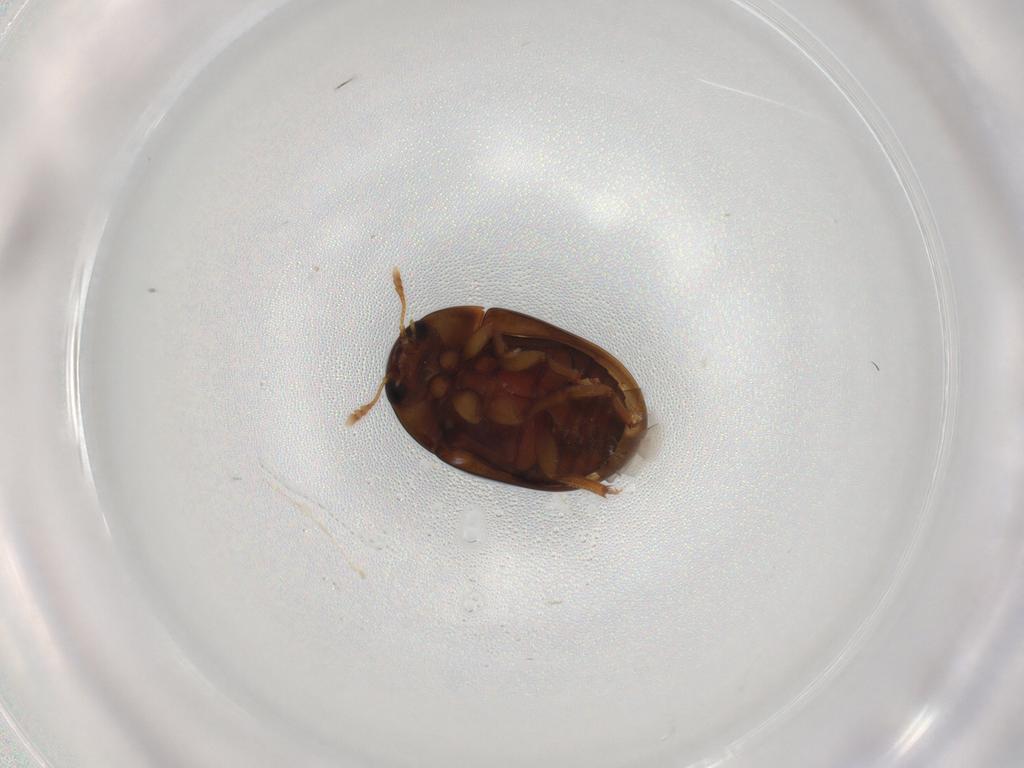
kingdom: Animalia
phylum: Arthropoda
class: Insecta
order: Coleoptera
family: Phalacridae
